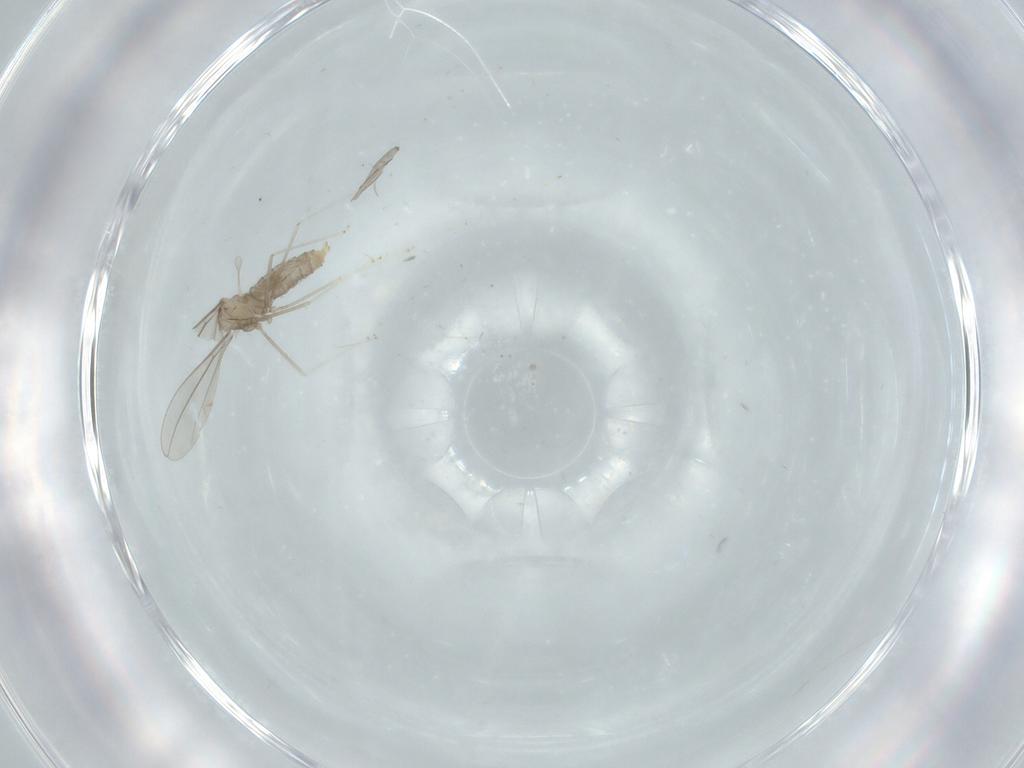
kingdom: Animalia
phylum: Arthropoda
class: Insecta
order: Diptera
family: Cecidomyiidae
